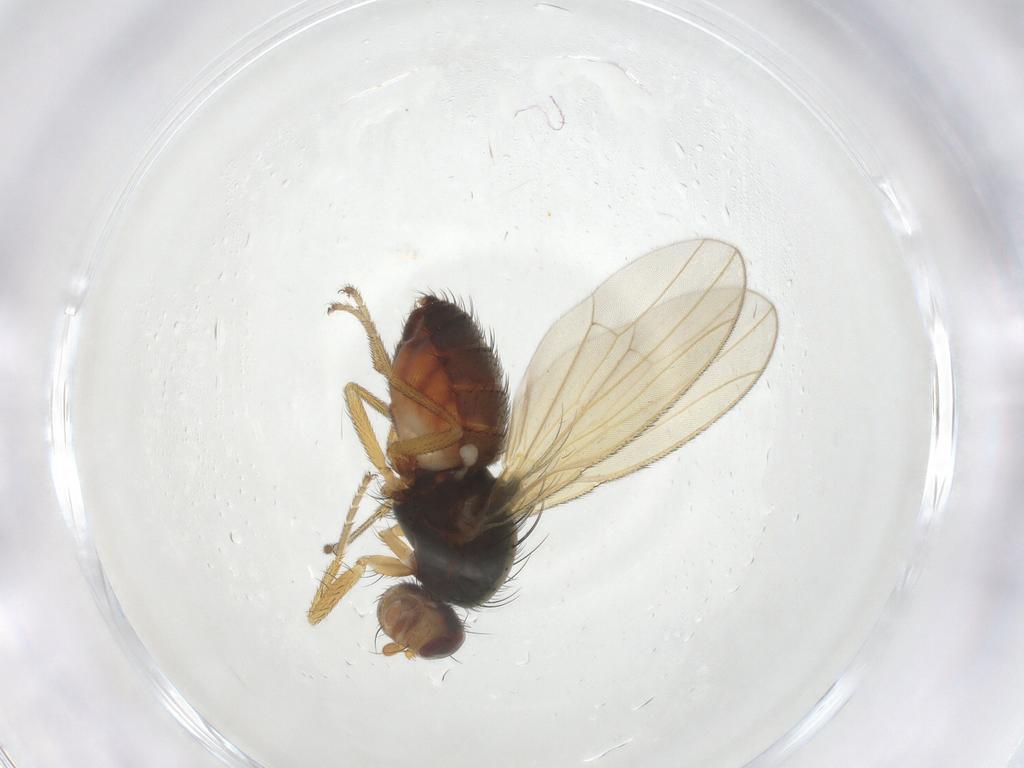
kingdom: Animalia
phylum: Arthropoda
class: Insecta
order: Diptera
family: Heleomyzidae
